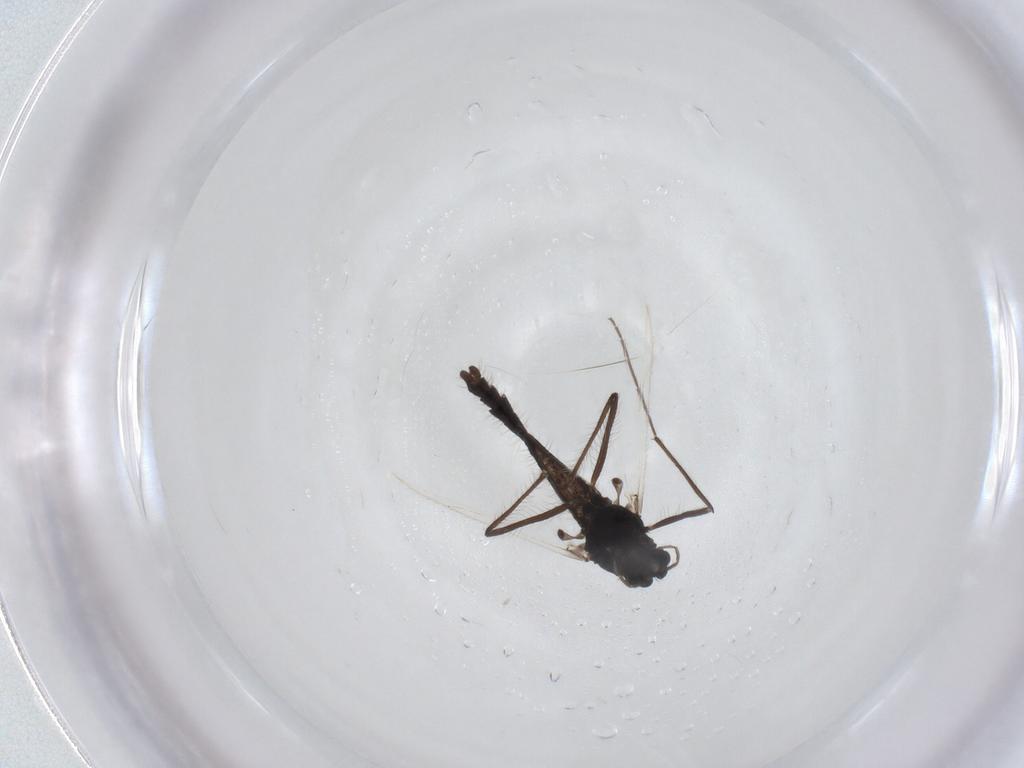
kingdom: Animalia
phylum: Arthropoda
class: Insecta
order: Diptera
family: Chironomidae
